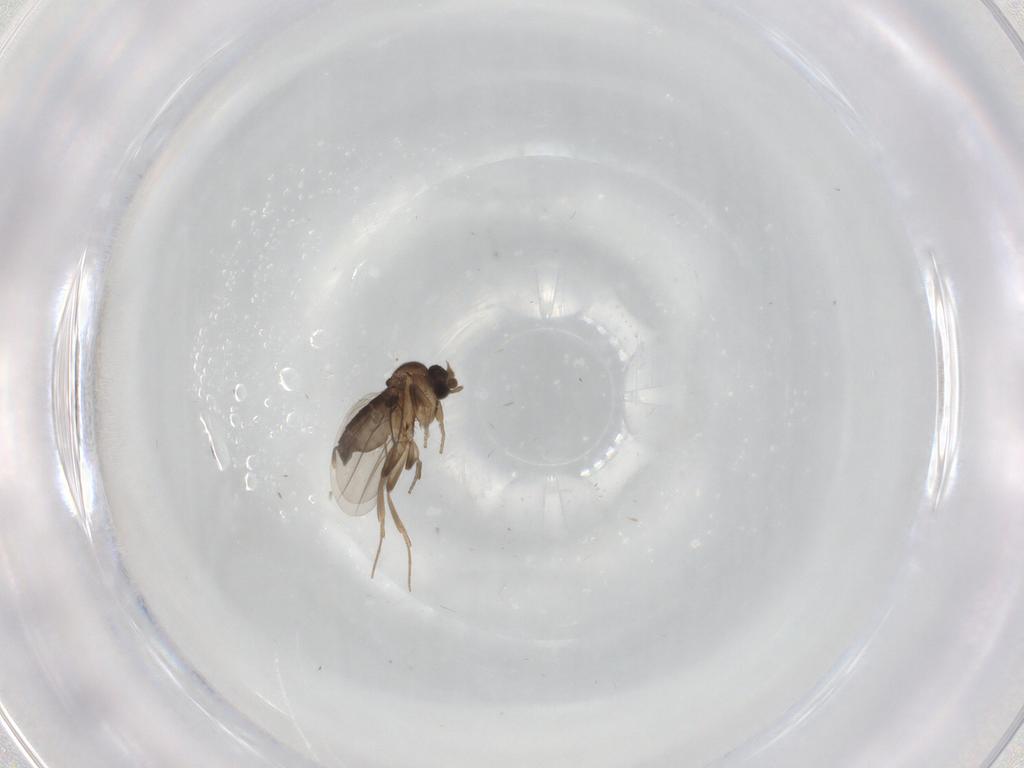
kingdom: Animalia
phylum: Arthropoda
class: Insecta
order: Diptera
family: Phoridae
